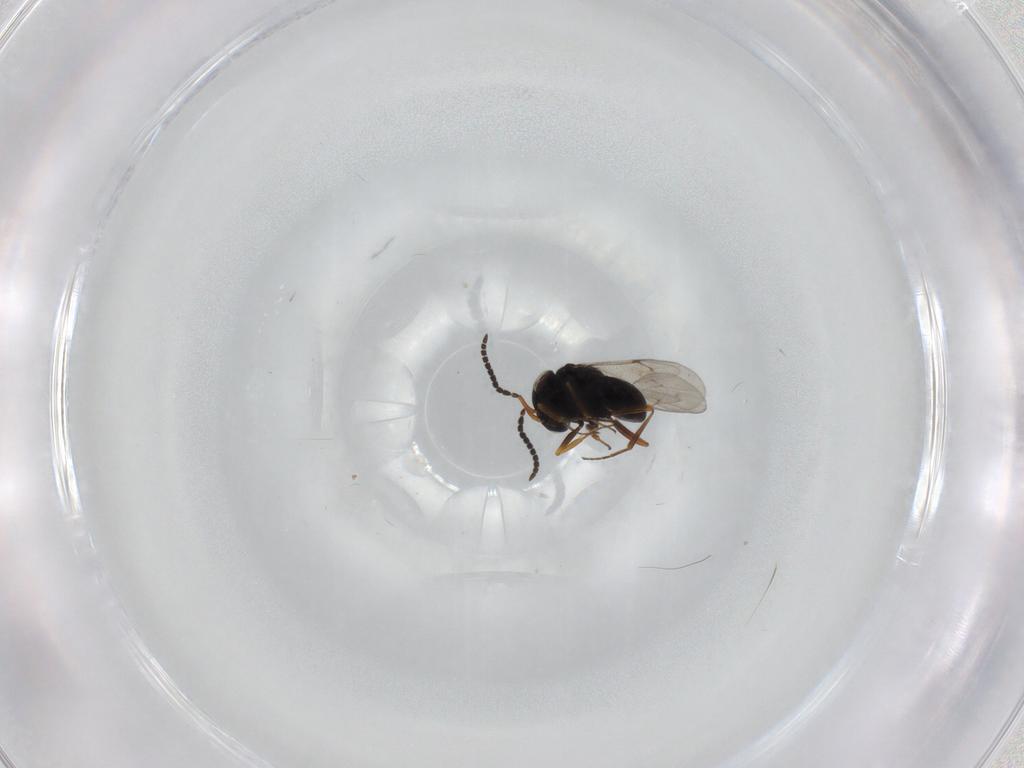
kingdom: Animalia
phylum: Arthropoda
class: Insecta
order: Hymenoptera
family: Scelionidae
